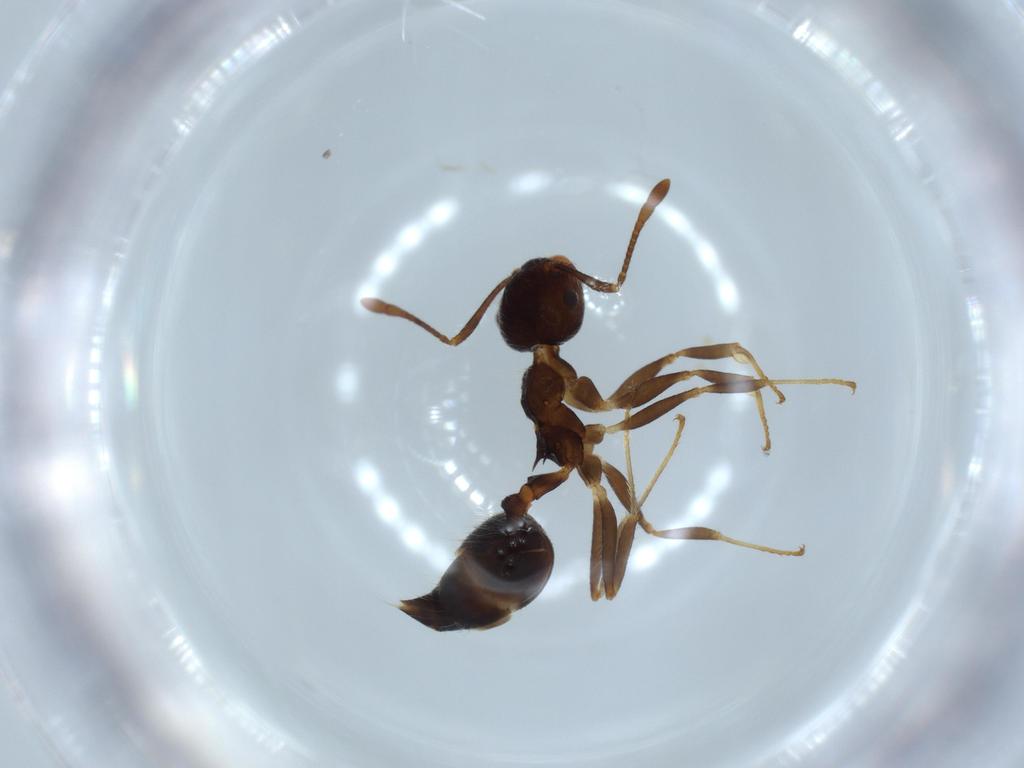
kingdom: Animalia
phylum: Arthropoda
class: Insecta
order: Hymenoptera
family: Formicidae
